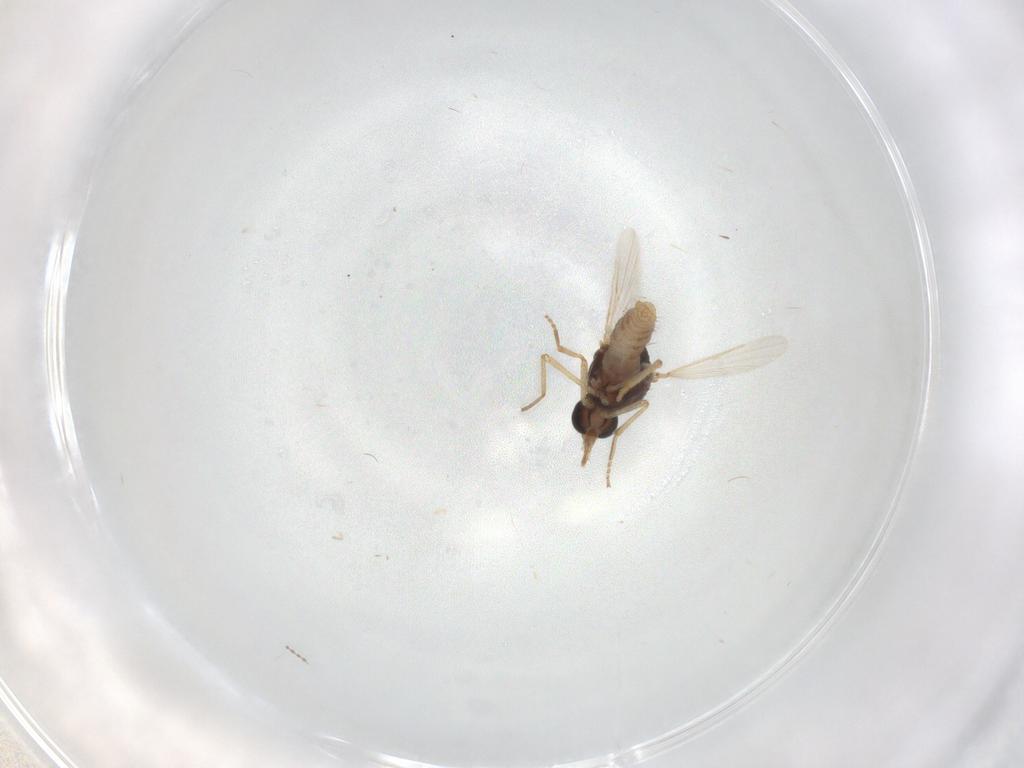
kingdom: Animalia
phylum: Arthropoda
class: Insecta
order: Diptera
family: Ceratopogonidae
